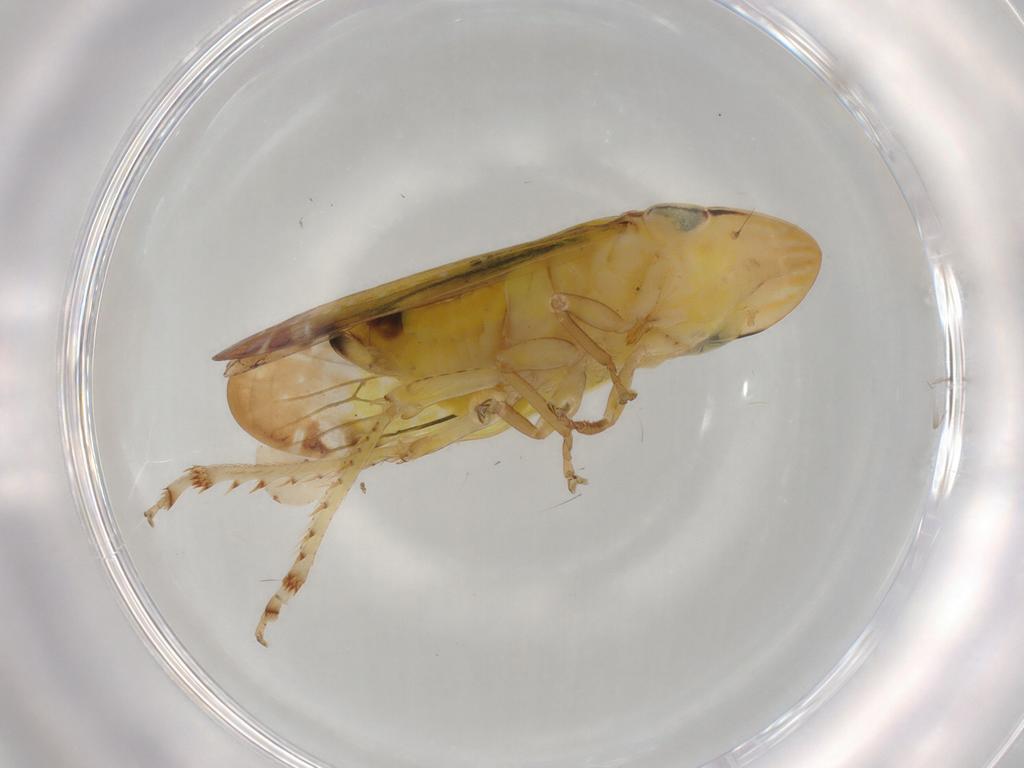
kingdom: Animalia
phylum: Arthropoda
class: Insecta
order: Hemiptera
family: Cicadellidae
